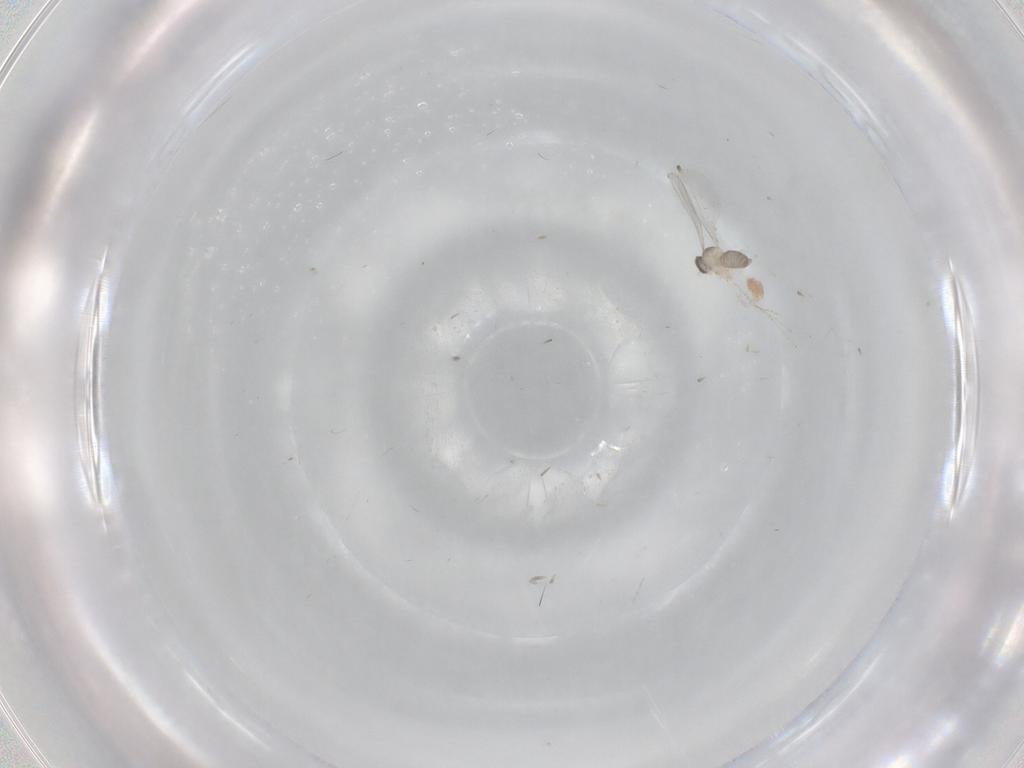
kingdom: Animalia
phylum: Arthropoda
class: Insecta
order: Diptera
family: Cecidomyiidae
